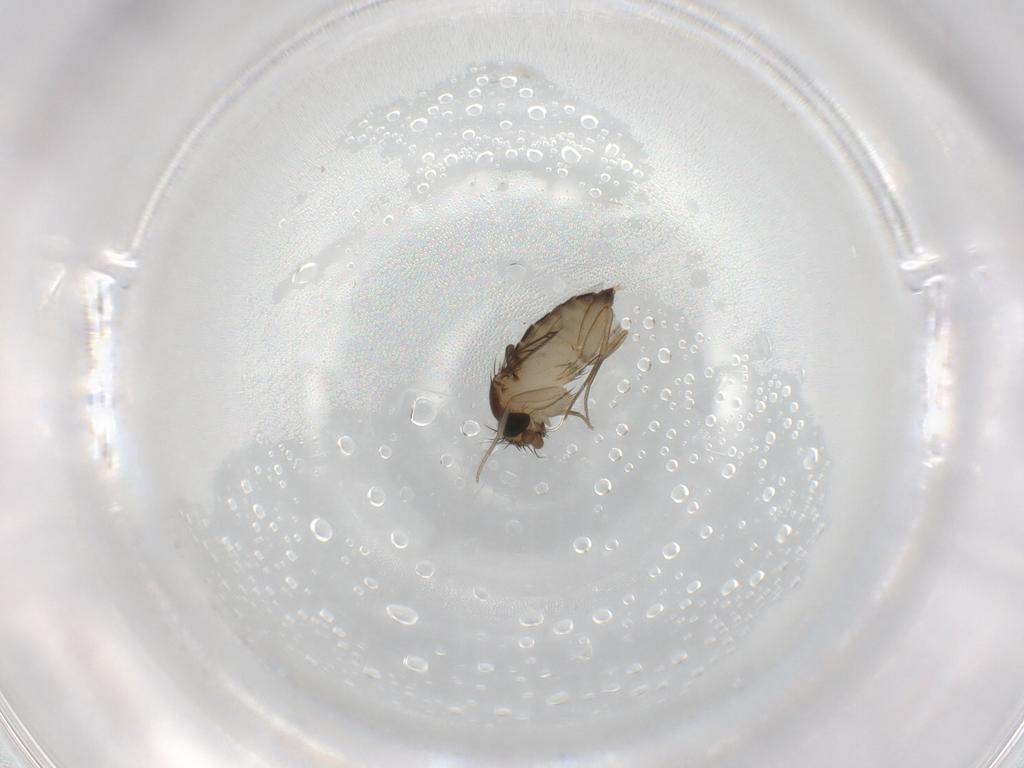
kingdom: Animalia
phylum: Arthropoda
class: Insecta
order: Diptera
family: Phoridae
